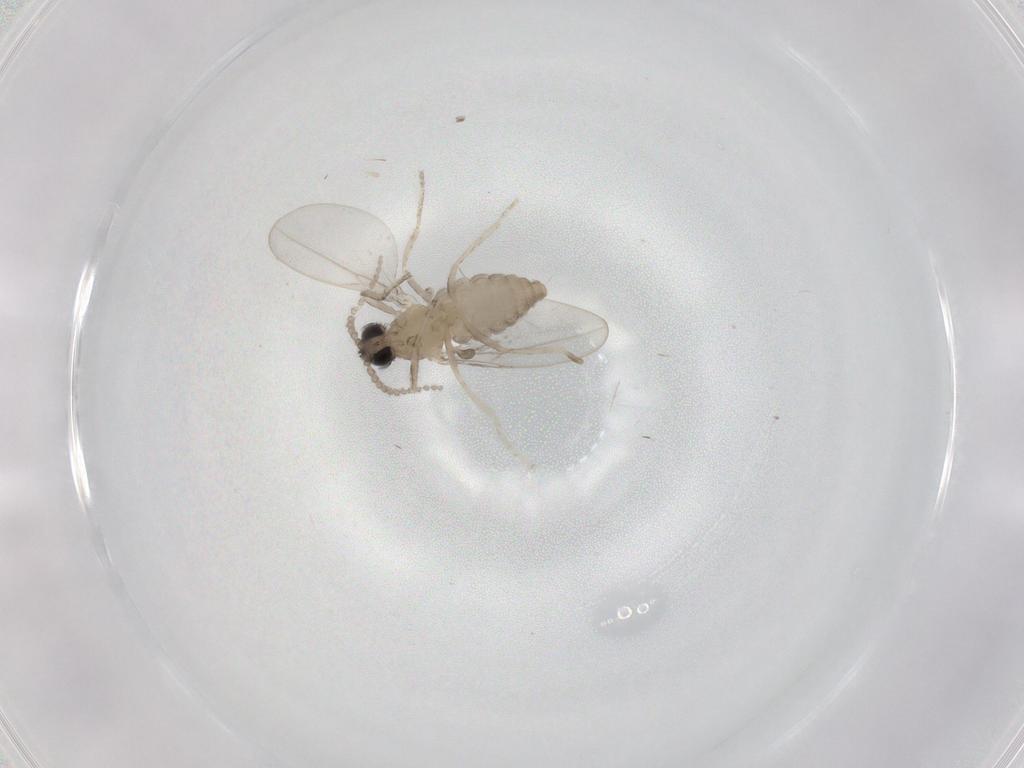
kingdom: Animalia
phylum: Arthropoda
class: Insecta
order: Diptera
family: Cecidomyiidae
